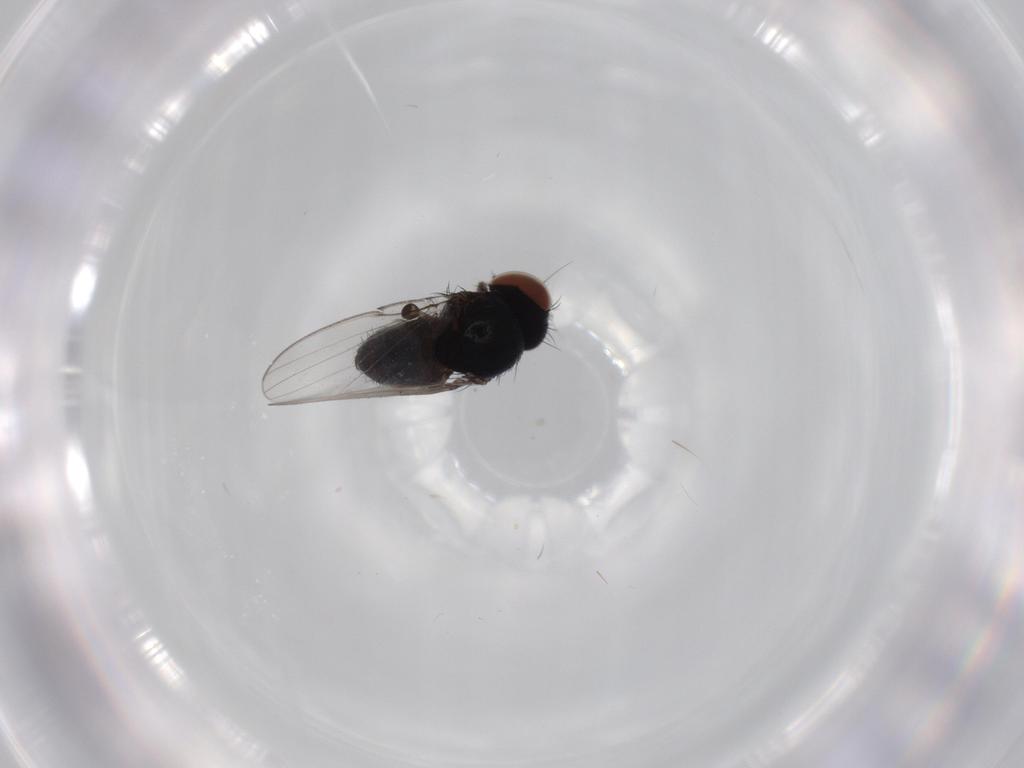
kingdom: Animalia
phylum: Arthropoda
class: Insecta
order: Diptera
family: Milichiidae
